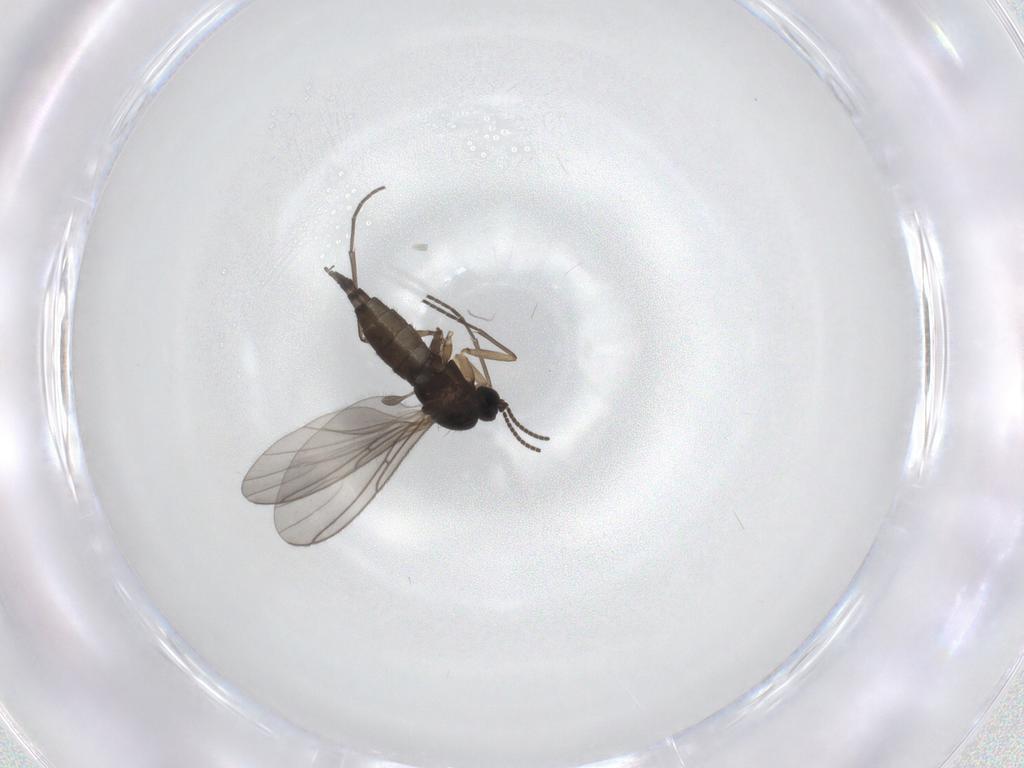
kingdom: Animalia
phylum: Arthropoda
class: Insecta
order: Diptera
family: Sciaridae
